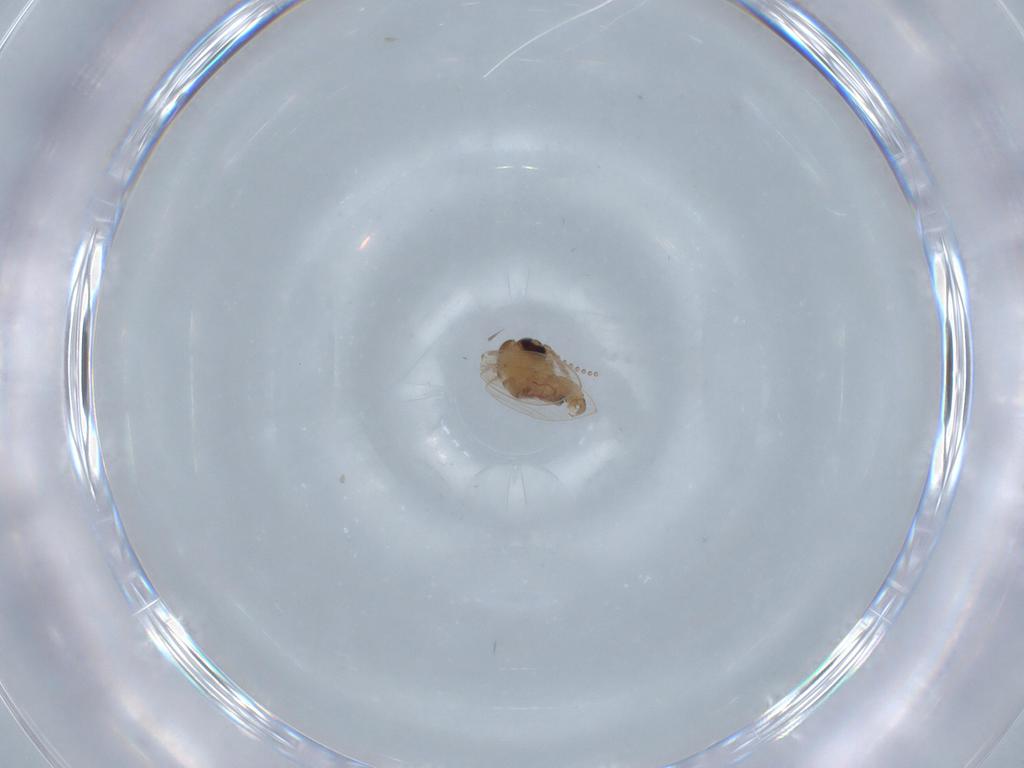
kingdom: Animalia
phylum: Arthropoda
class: Insecta
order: Diptera
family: Psychodidae
